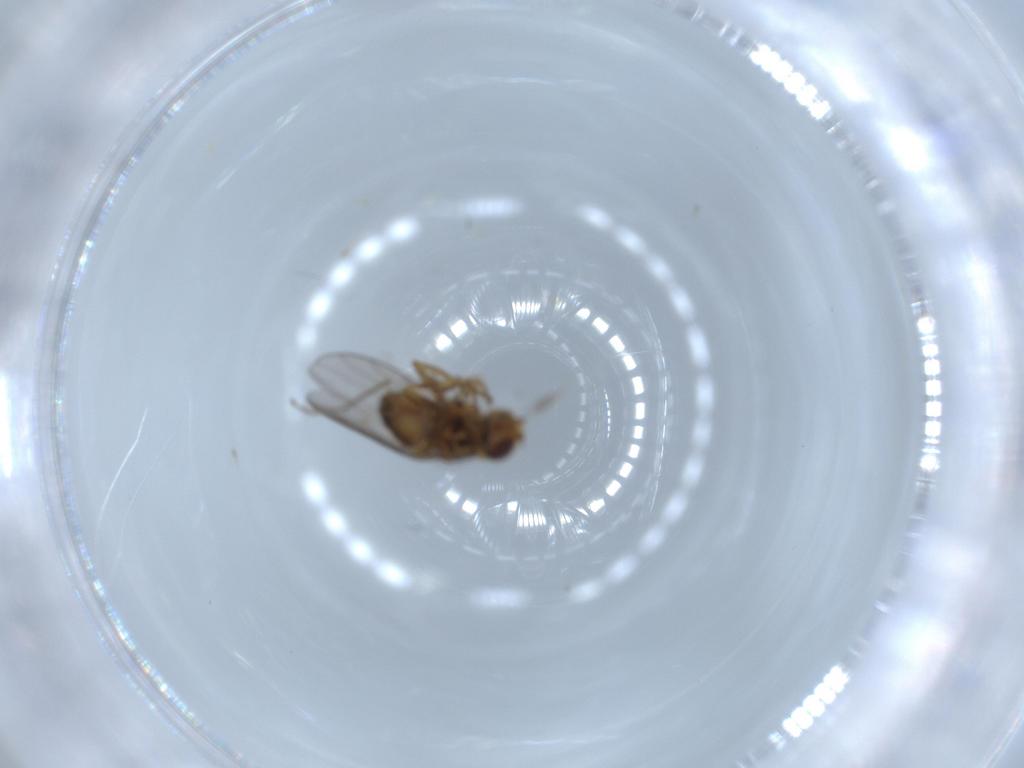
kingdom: Animalia
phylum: Arthropoda
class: Insecta
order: Diptera
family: Chloropidae
